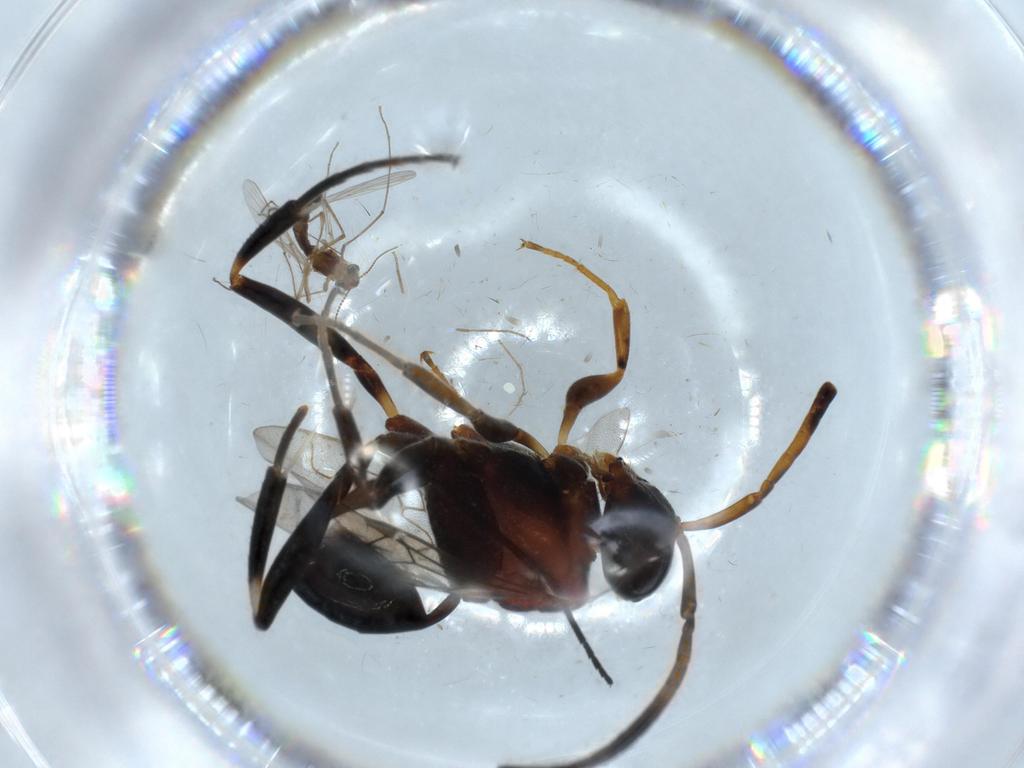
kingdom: Animalia
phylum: Arthropoda
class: Insecta
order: Diptera
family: Chironomidae
